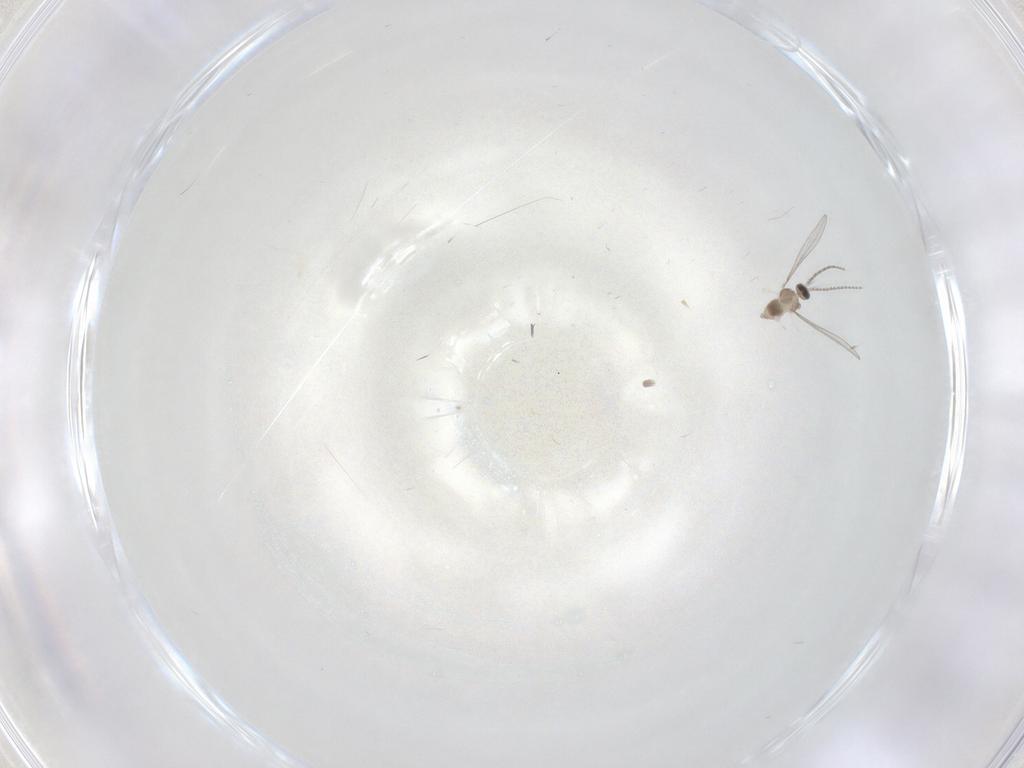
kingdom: Animalia
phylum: Arthropoda
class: Insecta
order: Diptera
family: Cecidomyiidae
